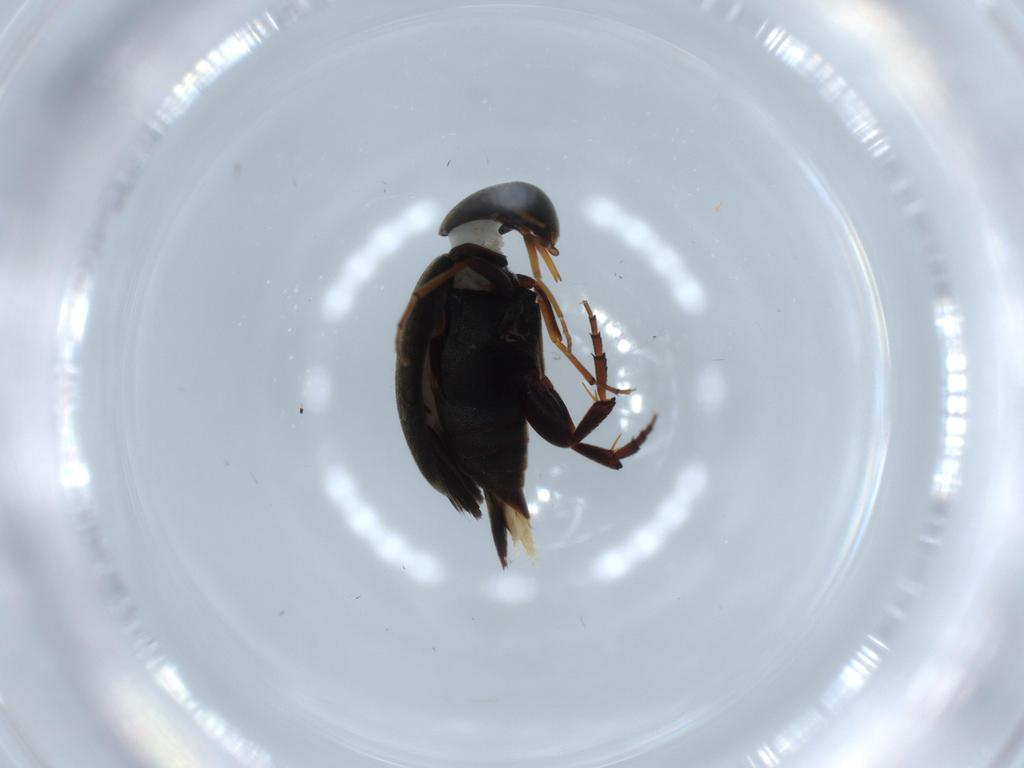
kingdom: Animalia
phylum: Arthropoda
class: Insecta
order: Coleoptera
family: Mordellidae
